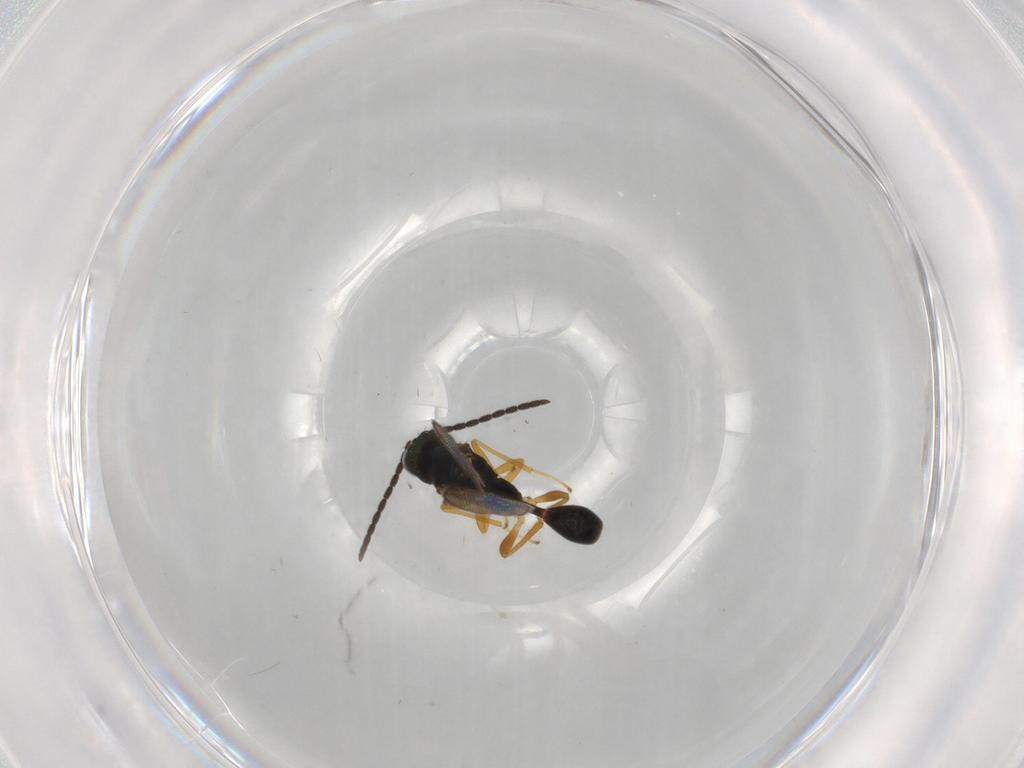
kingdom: Animalia
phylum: Arthropoda
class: Insecta
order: Hymenoptera
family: Diparidae
